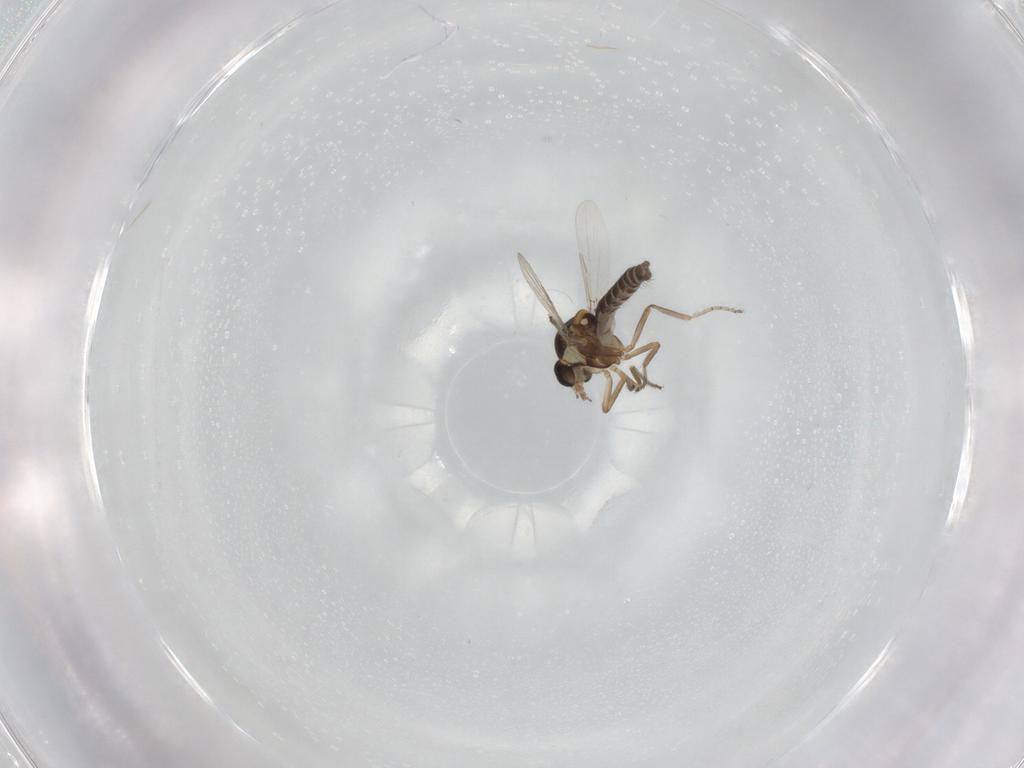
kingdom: Animalia
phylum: Arthropoda
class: Insecta
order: Diptera
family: Ceratopogonidae
